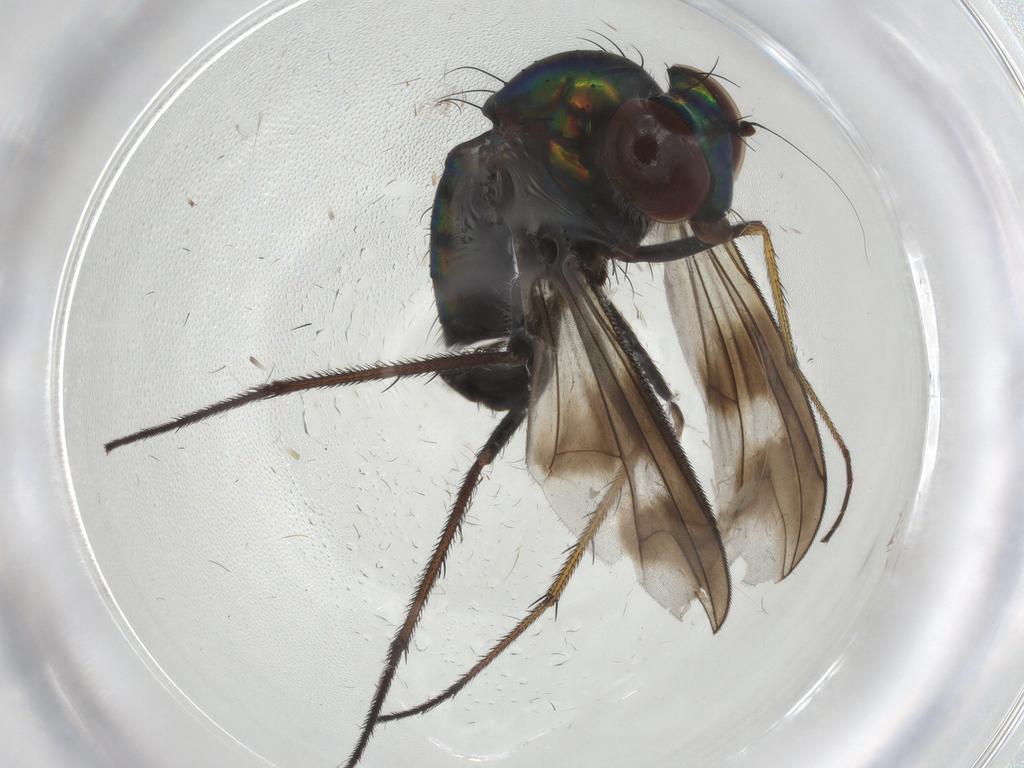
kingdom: Animalia
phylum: Arthropoda
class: Insecta
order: Diptera
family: Dolichopodidae
